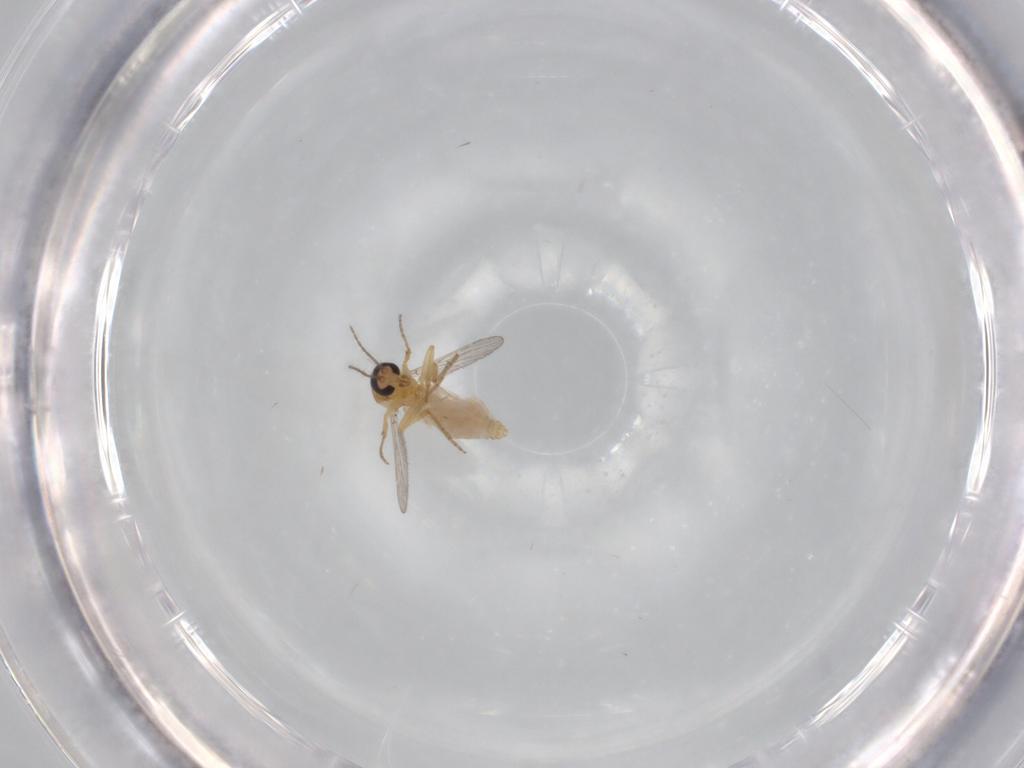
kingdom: Animalia
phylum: Arthropoda
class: Insecta
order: Diptera
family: Ceratopogonidae
